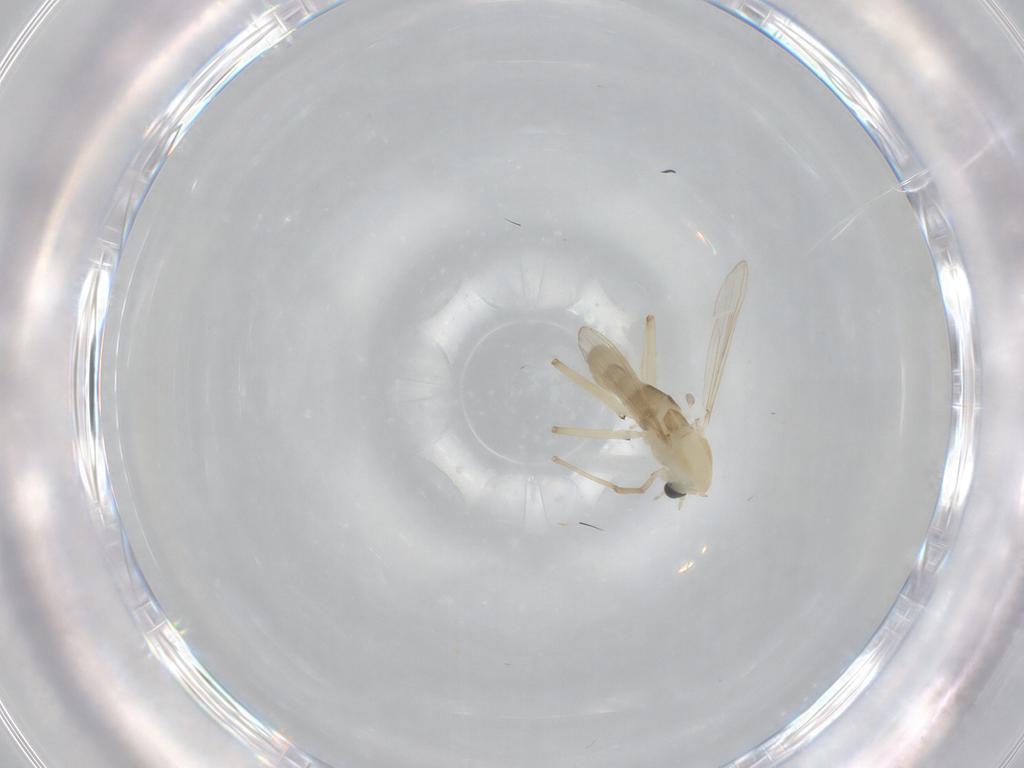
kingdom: Animalia
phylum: Arthropoda
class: Insecta
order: Diptera
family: Chironomidae
